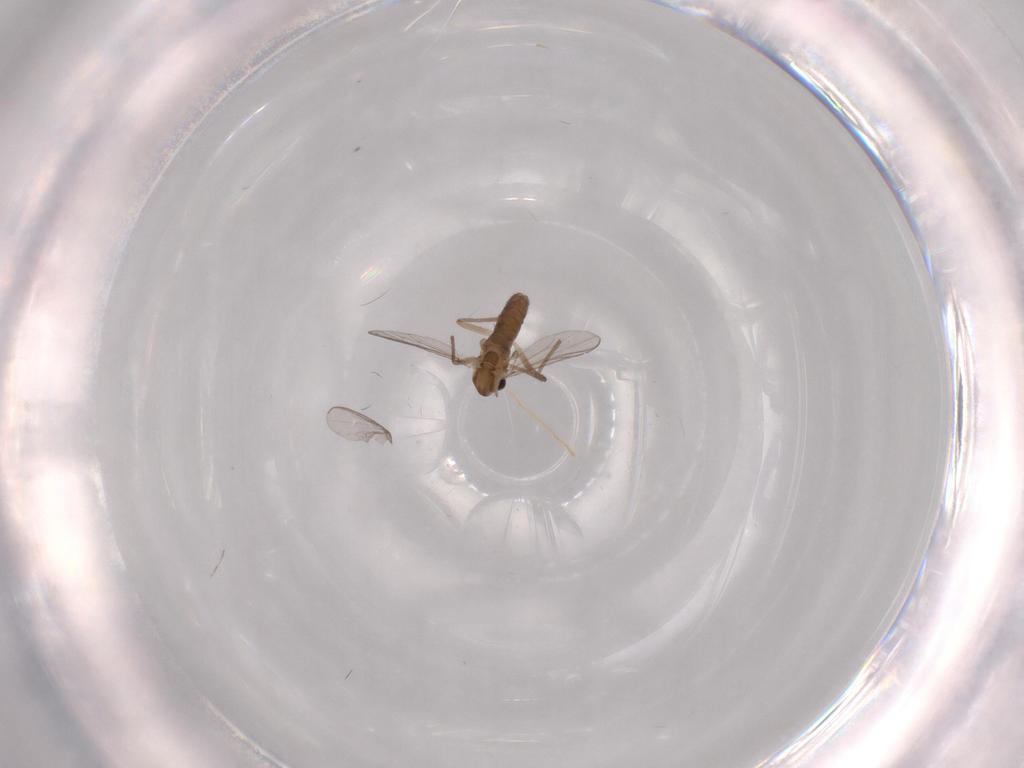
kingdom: Animalia
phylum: Arthropoda
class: Insecta
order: Diptera
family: Chironomidae
